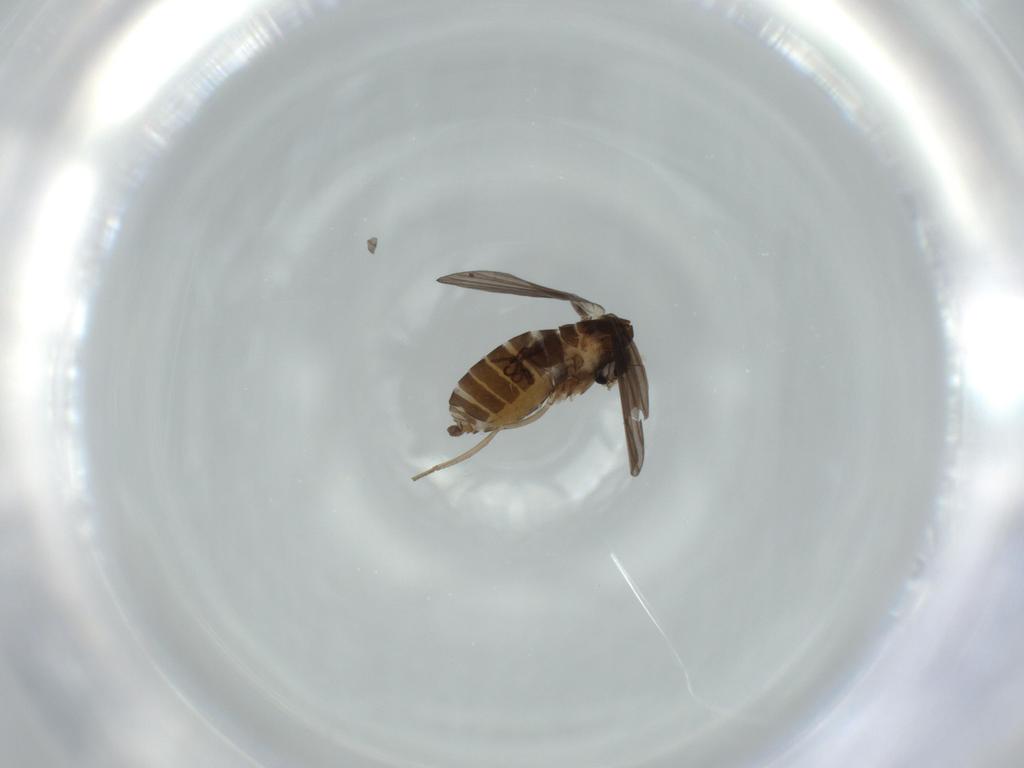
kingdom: Animalia
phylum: Arthropoda
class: Insecta
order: Diptera
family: Psychodidae
